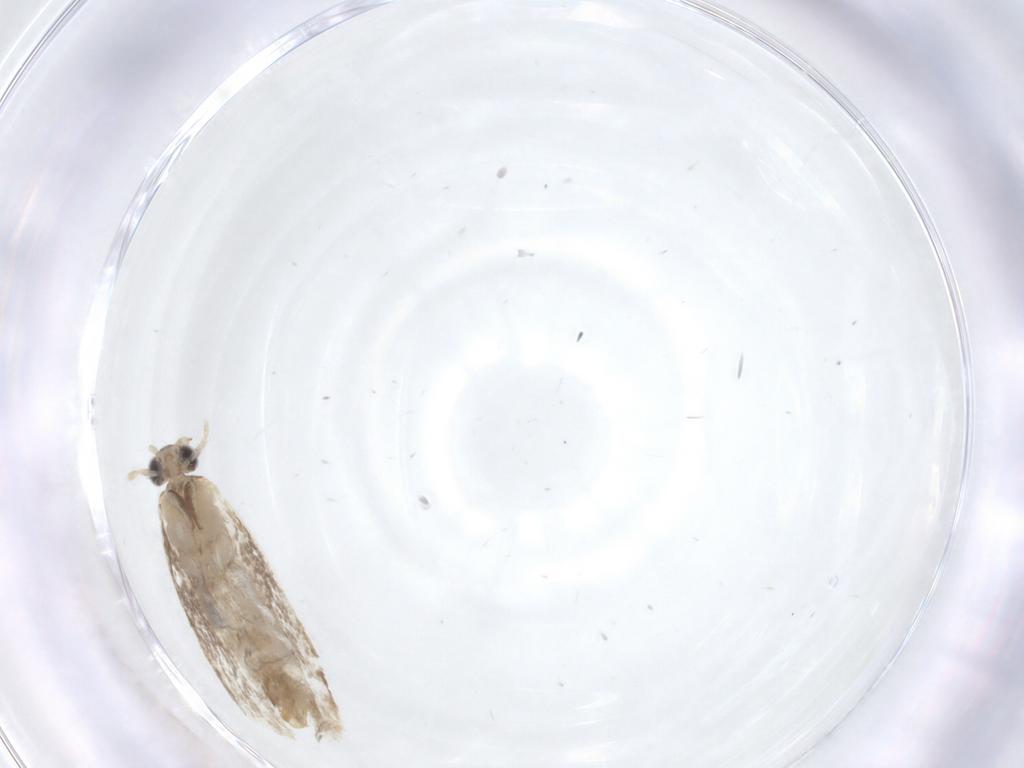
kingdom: Animalia
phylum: Arthropoda
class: Insecta
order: Lepidoptera
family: Dryadaulidae
